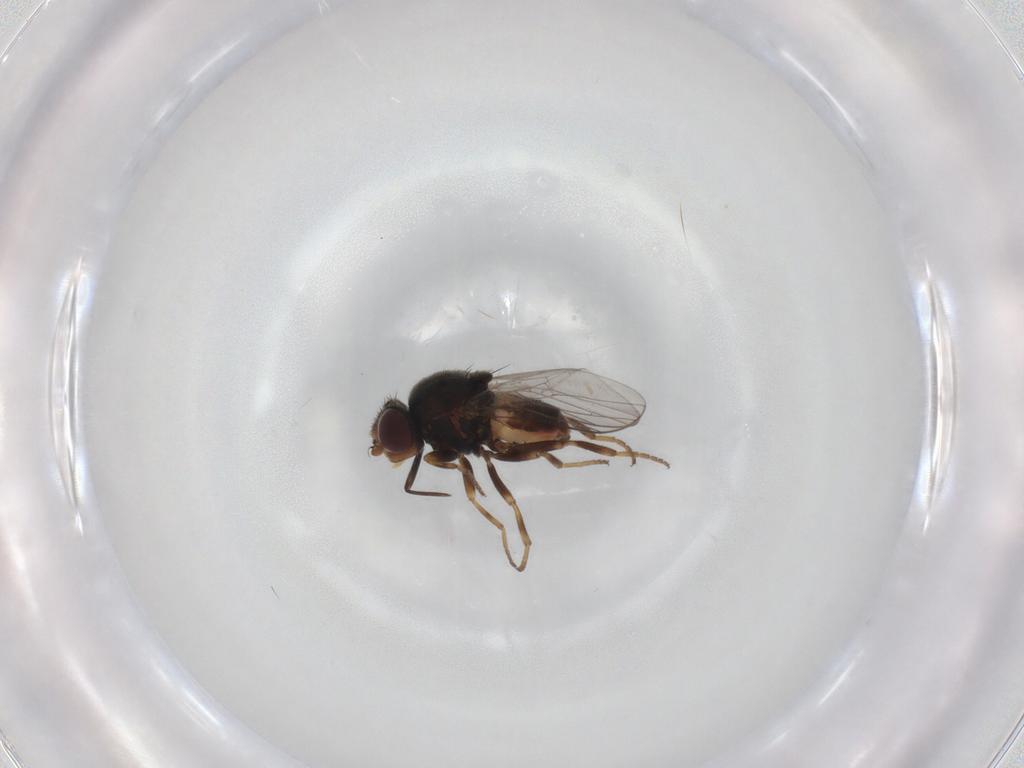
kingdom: Animalia
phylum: Arthropoda
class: Insecta
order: Diptera
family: Chloropidae
